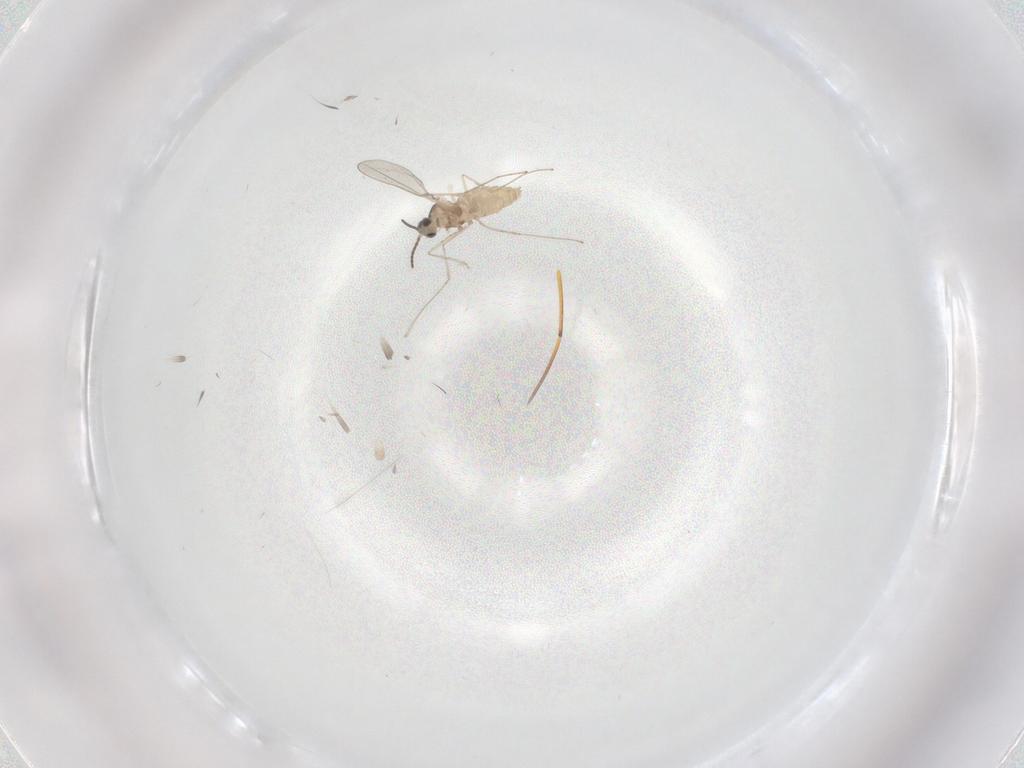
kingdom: Animalia
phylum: Arthropoda
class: Insecta
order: Diptera
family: Cecidomyiidae
